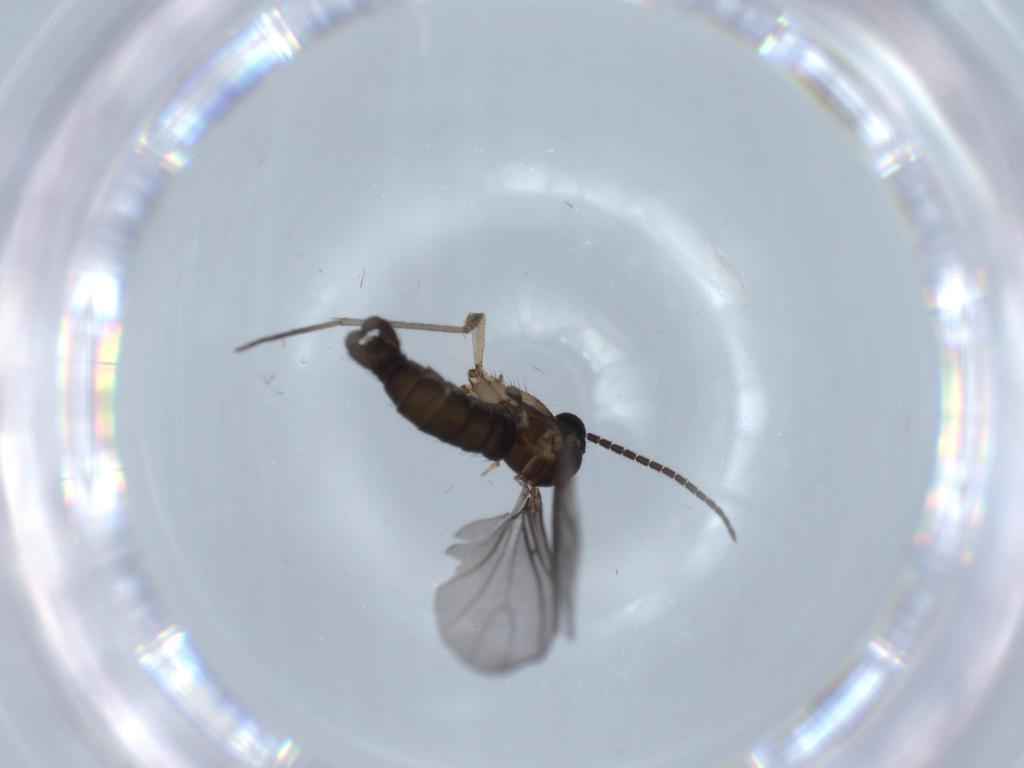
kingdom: Animalia
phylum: Arthropoda
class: Insecta
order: Diptera
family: Sciaridae
